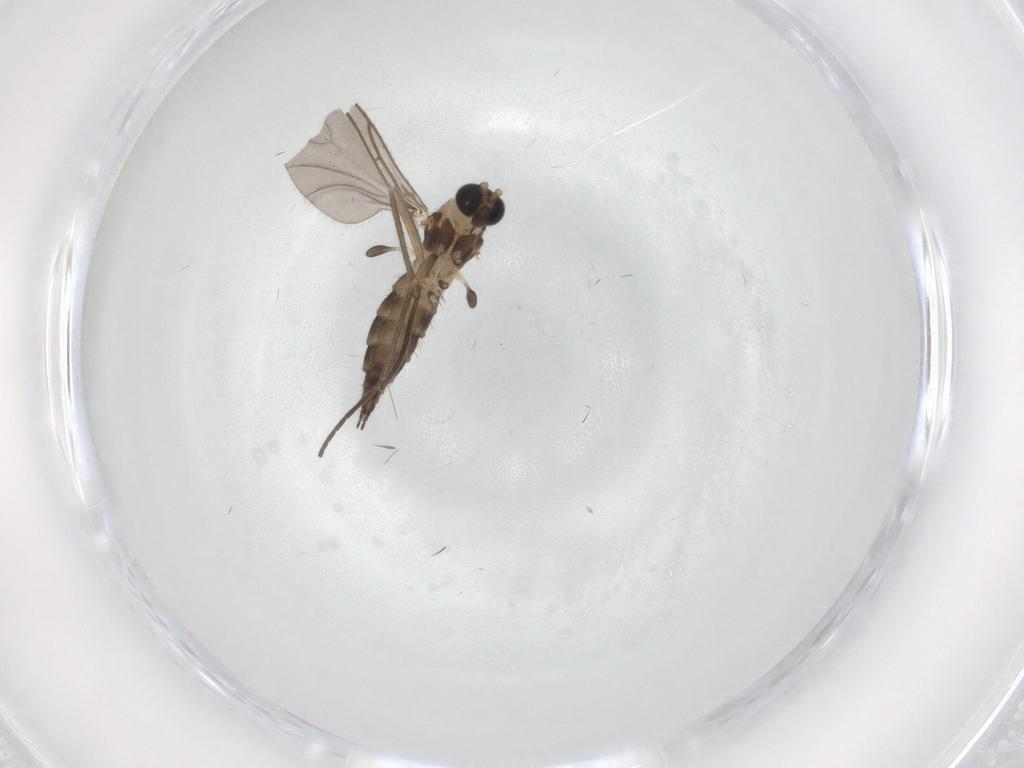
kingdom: Animalia
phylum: Arthropoda
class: Insecta
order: Diptera
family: Sciaridae
